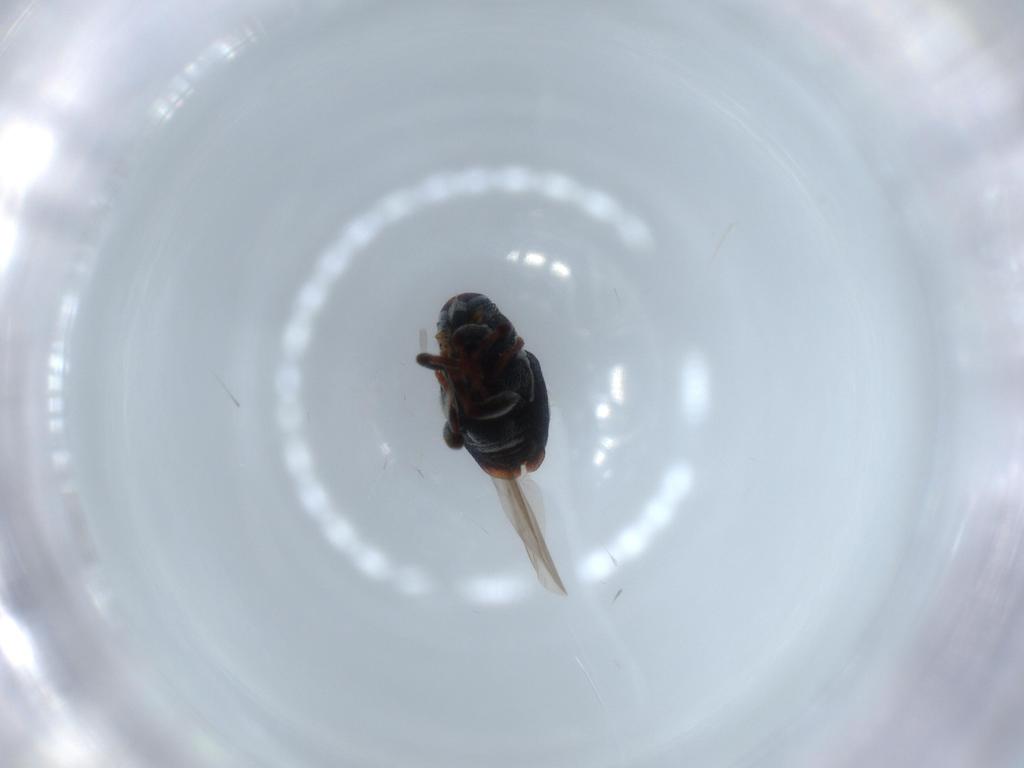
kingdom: Animalia
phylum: Arthropoda
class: Insecta
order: Coleoptera
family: Curculionidae
